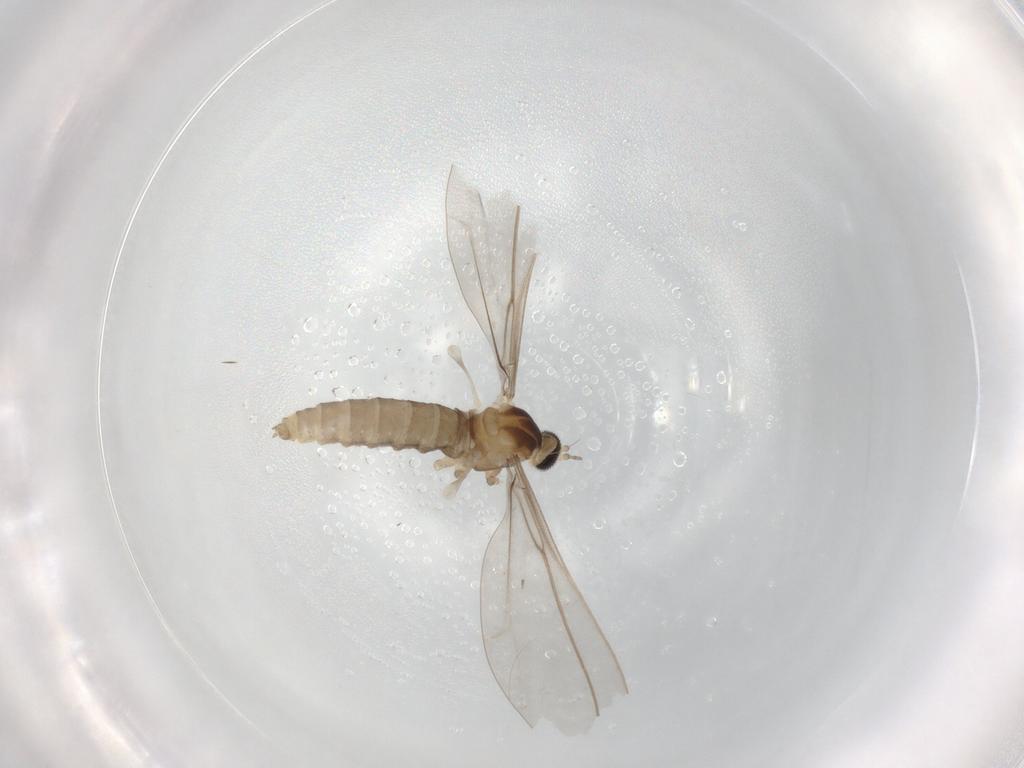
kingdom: Animalia
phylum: Arthropoda
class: Insecta
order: Diptera
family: Cecidomyiidae
